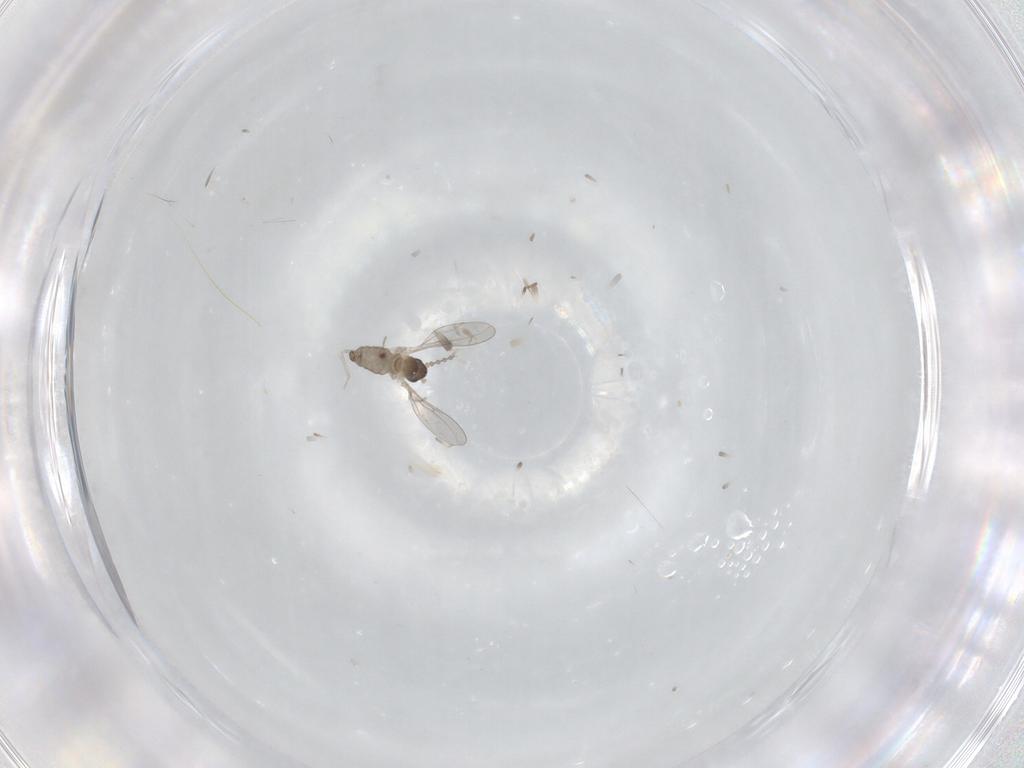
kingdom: Animalia
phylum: Arthropoda
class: Insecta
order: Diptera
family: Cecidomyiidae
